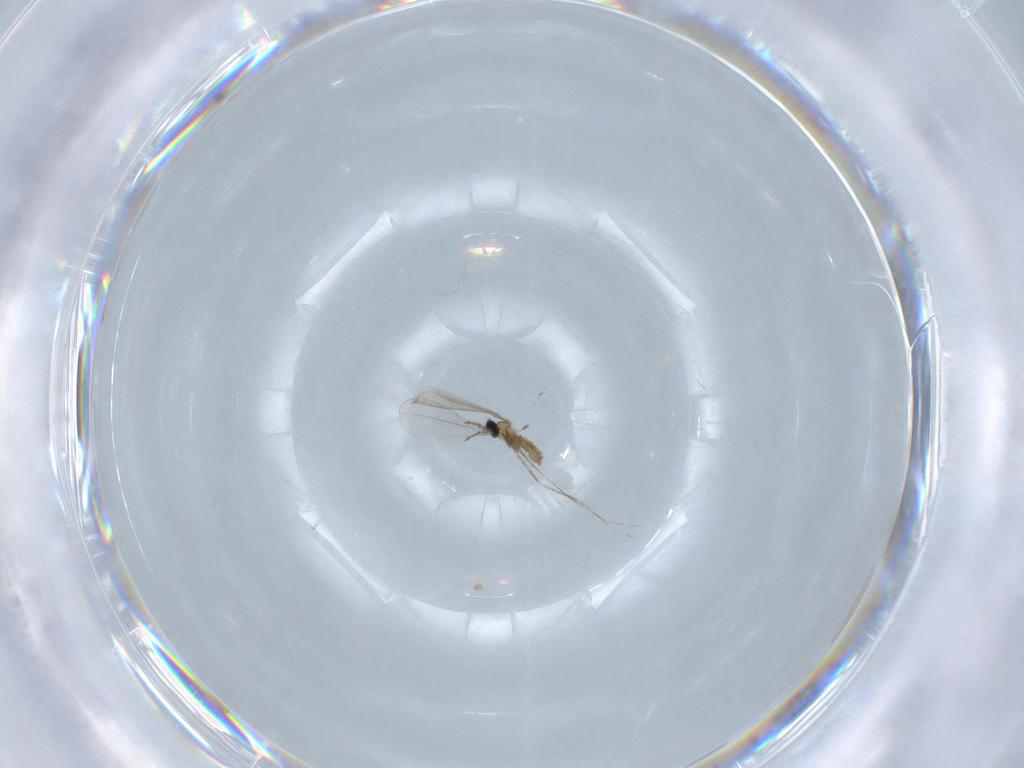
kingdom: Animalia
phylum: Arthropoda
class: Insecta
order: Diptera
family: Cecidomyiidae
